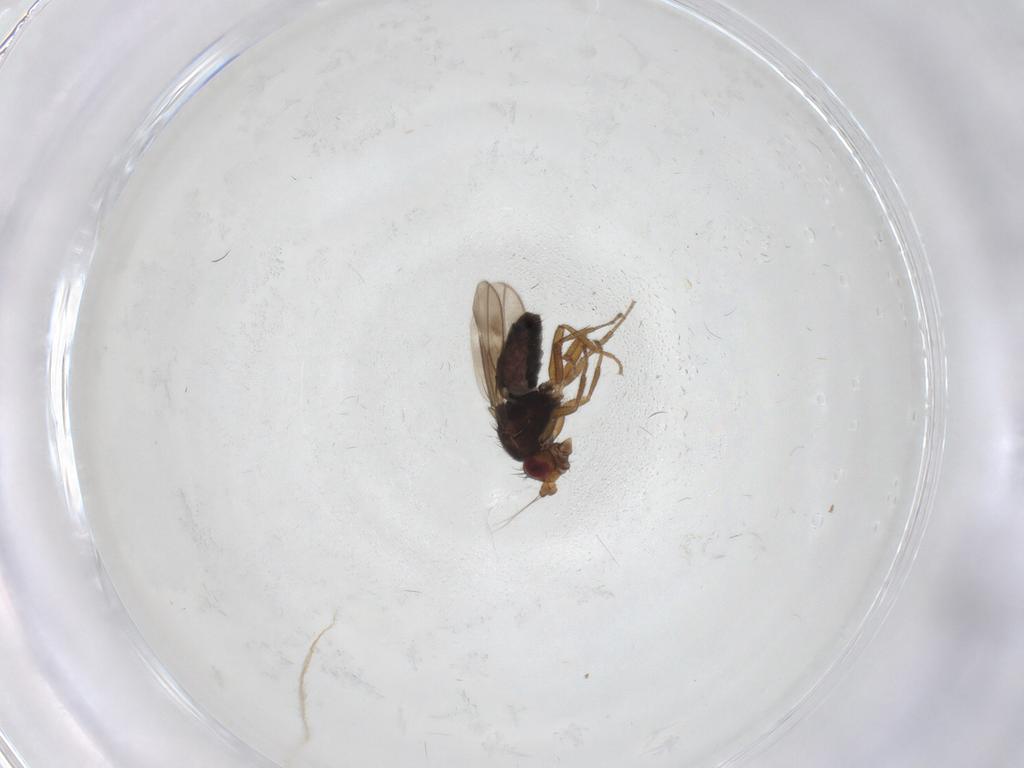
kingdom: Animalia
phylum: Arthropoda
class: Insecta
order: Diptera
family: Sphaeroceridae
